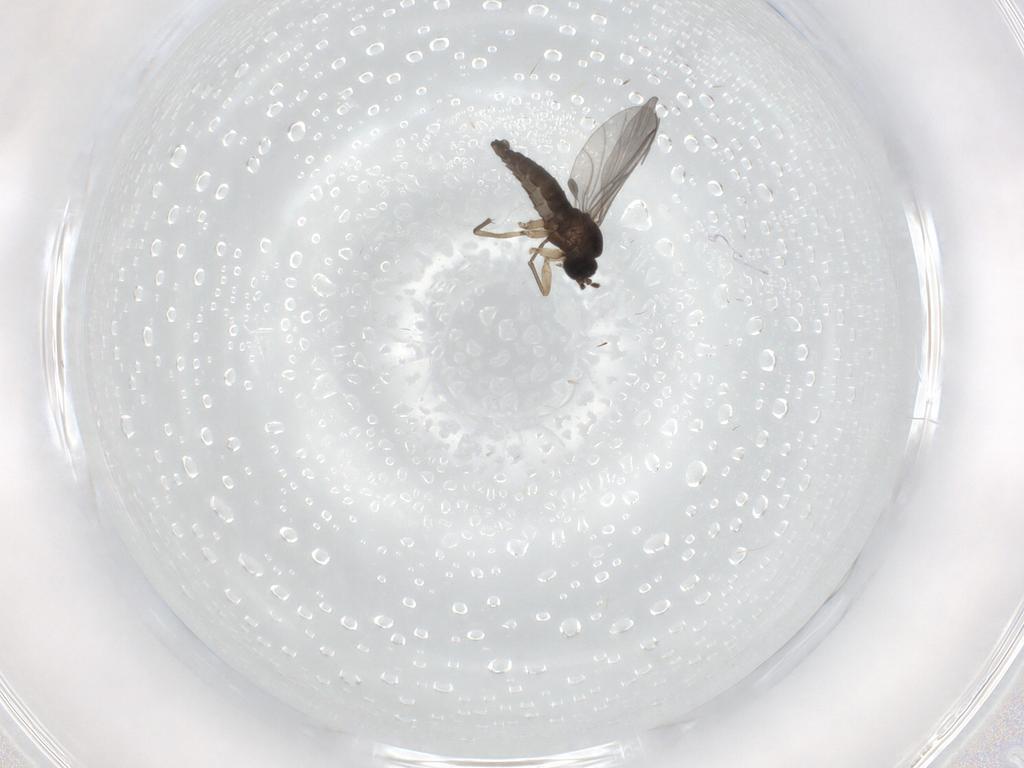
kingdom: Animalia
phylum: Arthropoda
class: Insecta
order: Diptera
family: Sciaridae
